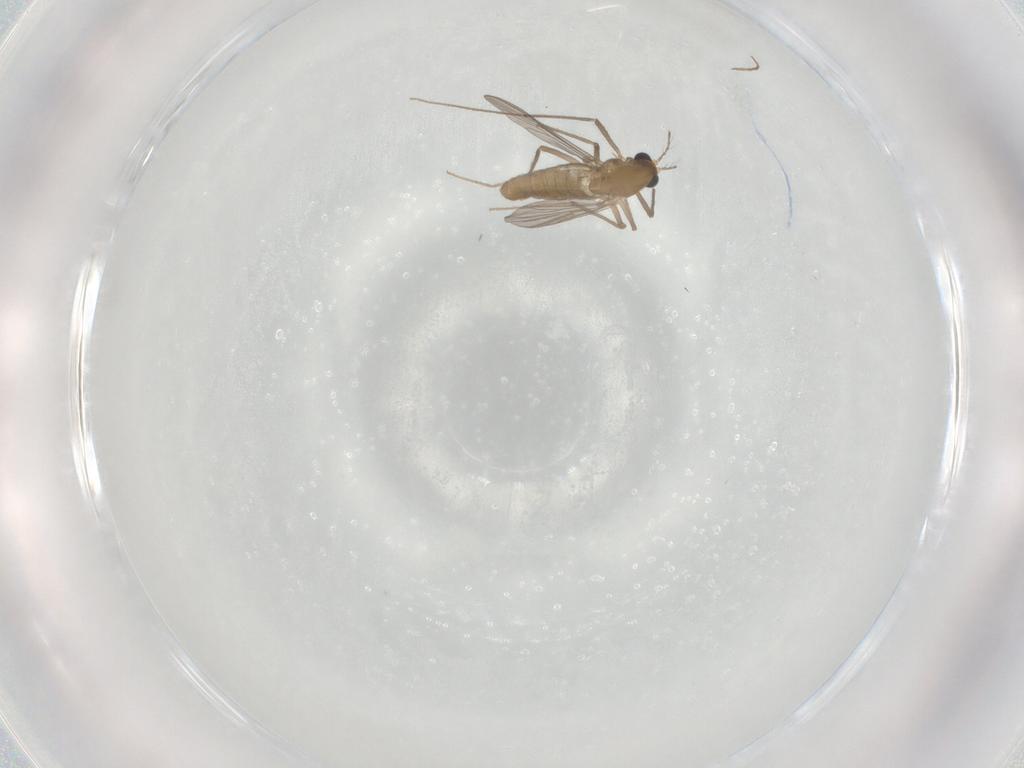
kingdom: Animalia
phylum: Arthropoda
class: Insecta
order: Diptera
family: Chironomidae
